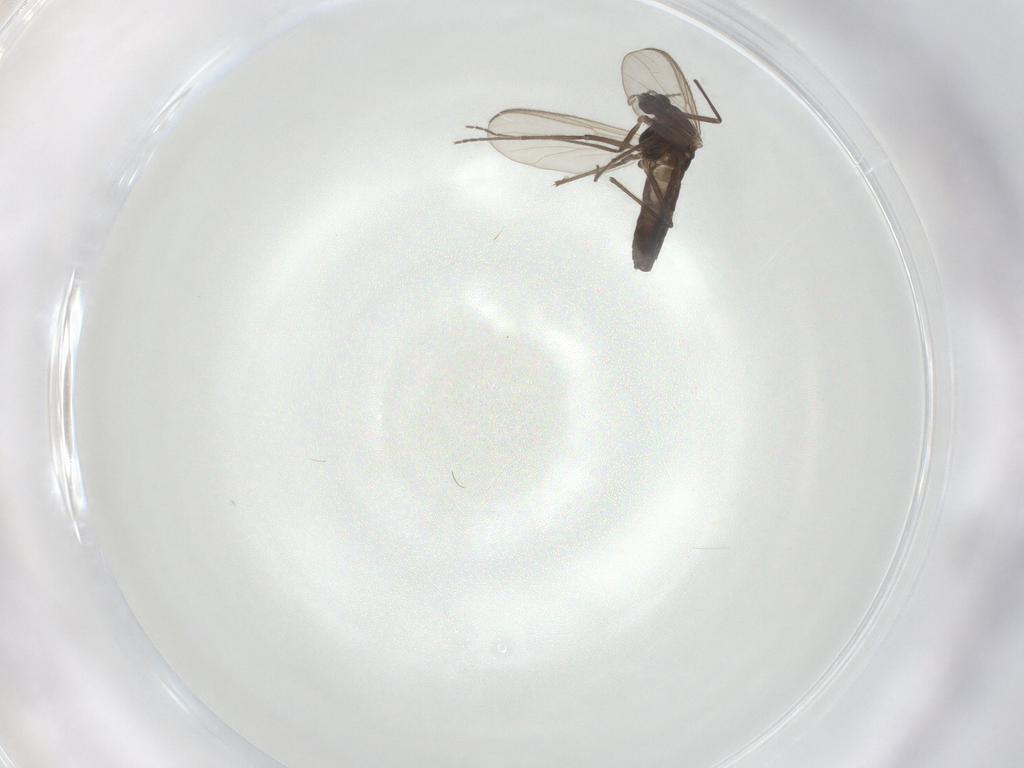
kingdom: Animalia
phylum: Arthropoda
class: Insecta
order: Diptera
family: Chironomidae
